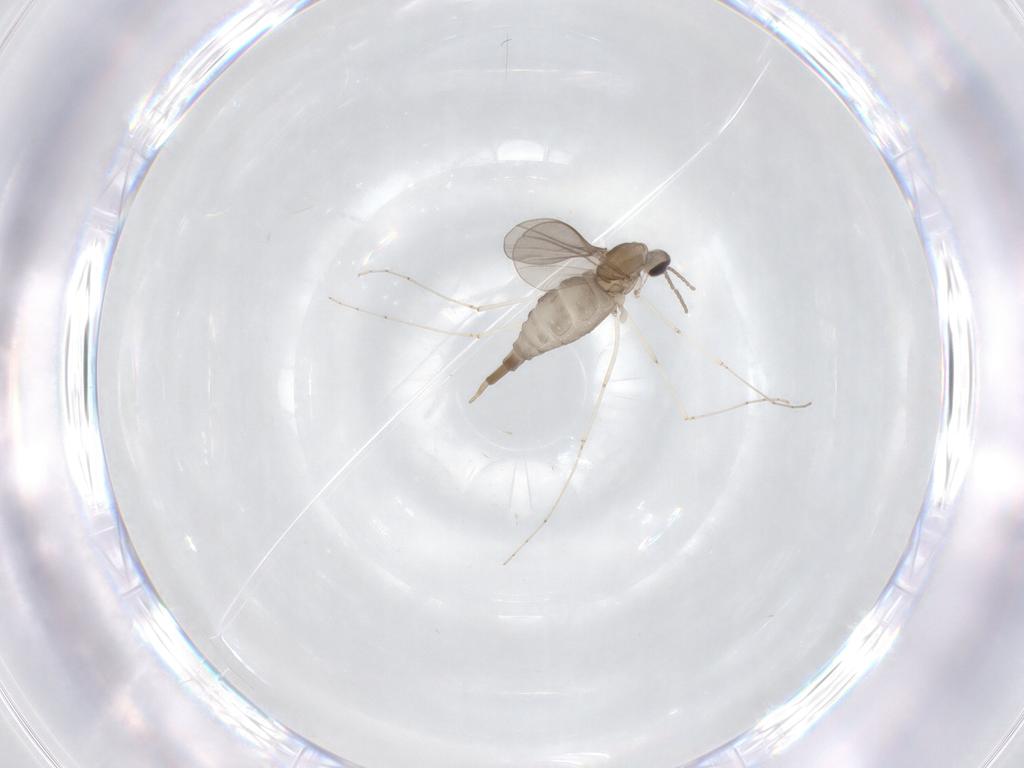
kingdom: Animalia
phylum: Arthropoda
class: Insecta
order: Diptera
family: Cecidomyiidae
